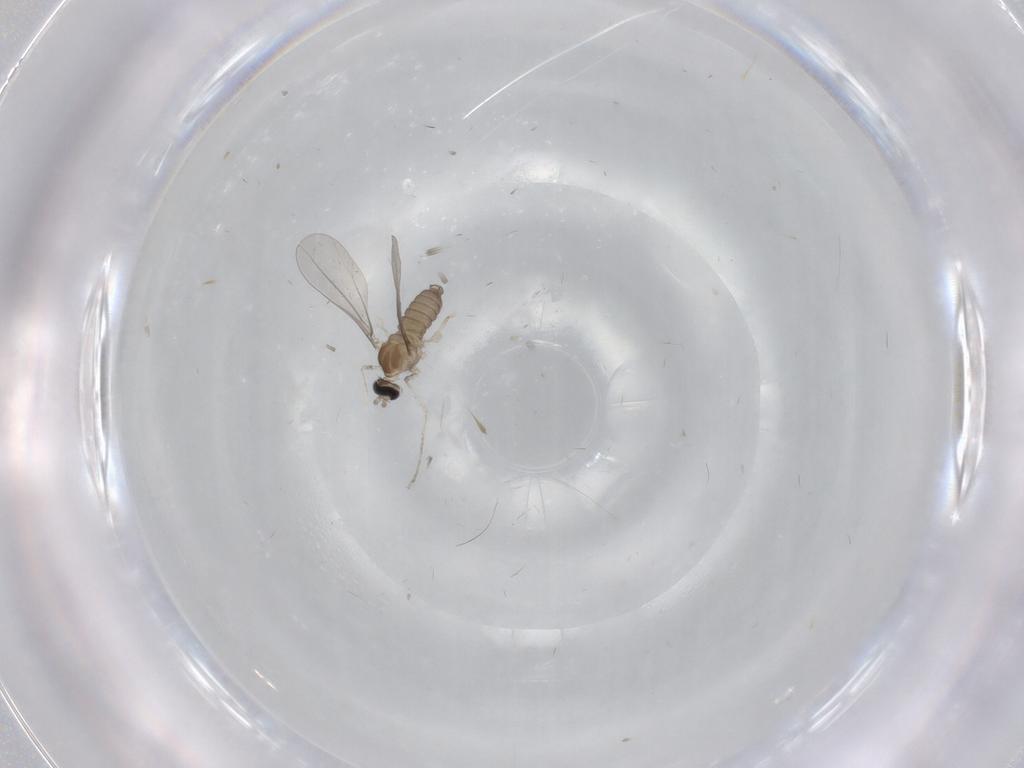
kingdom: Animalia
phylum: Arthropoda
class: Insecta
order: Diptera
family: Cecidomyiidae
